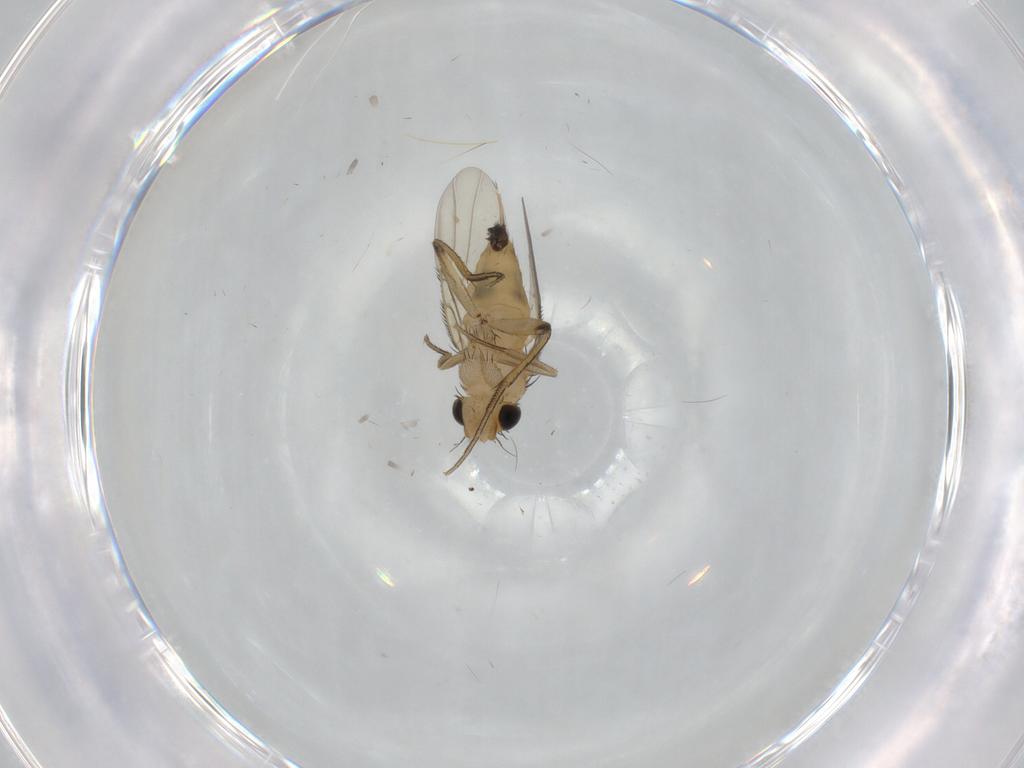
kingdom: Animalia
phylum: Arthropoda
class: Insecta
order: Diptera
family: Phoridae
